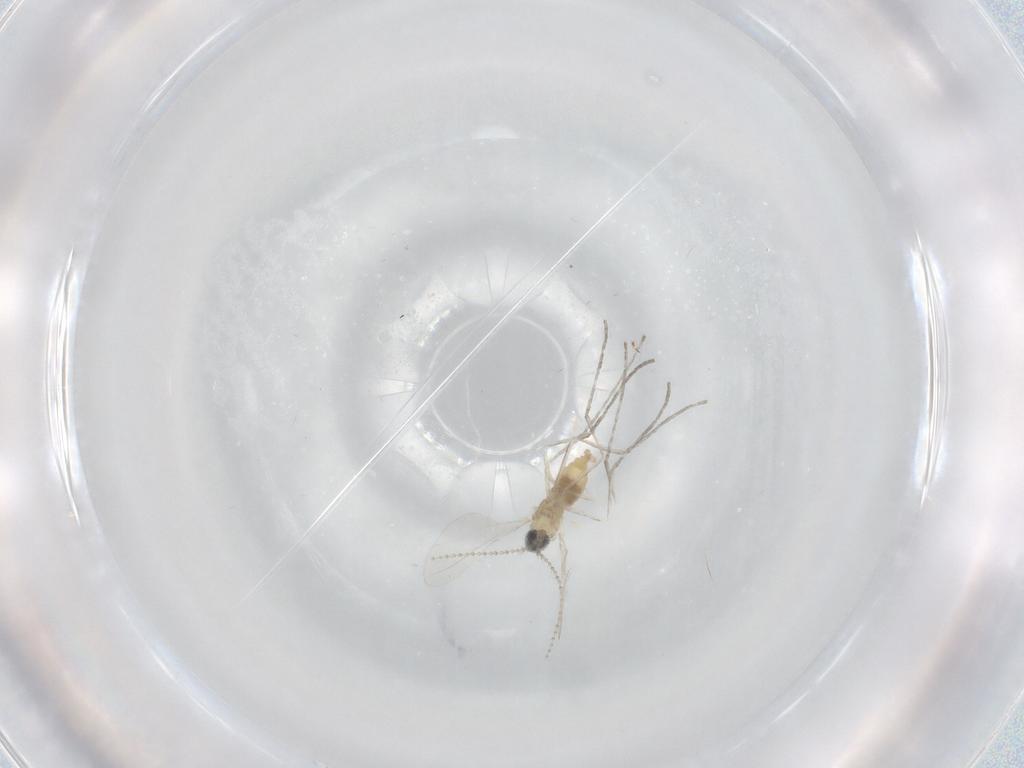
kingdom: Animalia
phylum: Arthropoda
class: Insecta
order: Diptera
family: Cecidomyiidae
